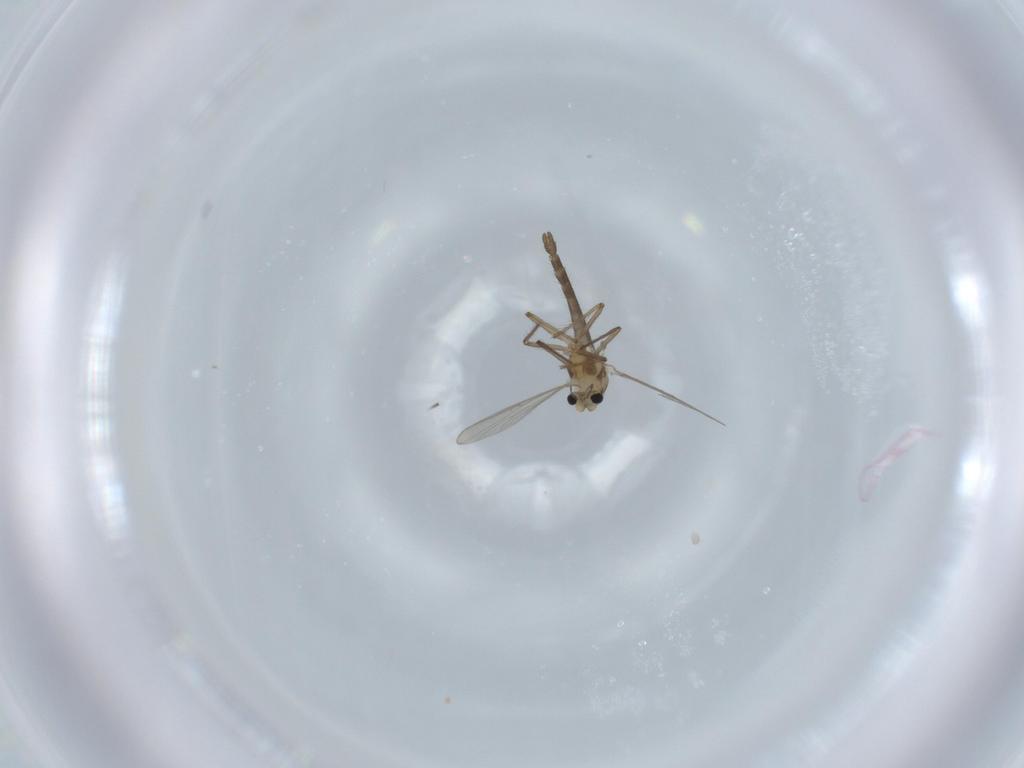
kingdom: Animalia
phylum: Arthropoda
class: Insecta
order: Diptera
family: Chironomidae
